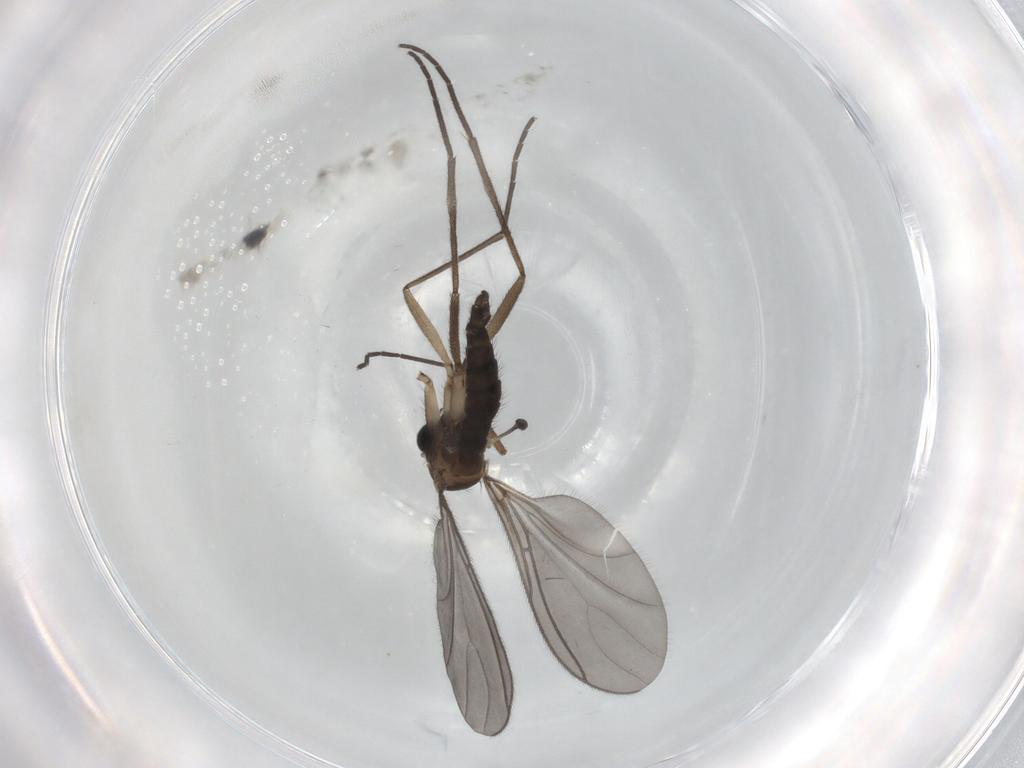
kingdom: Animalia
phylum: Arthropoda
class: Insecta
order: Diptera
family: Sciaridae
